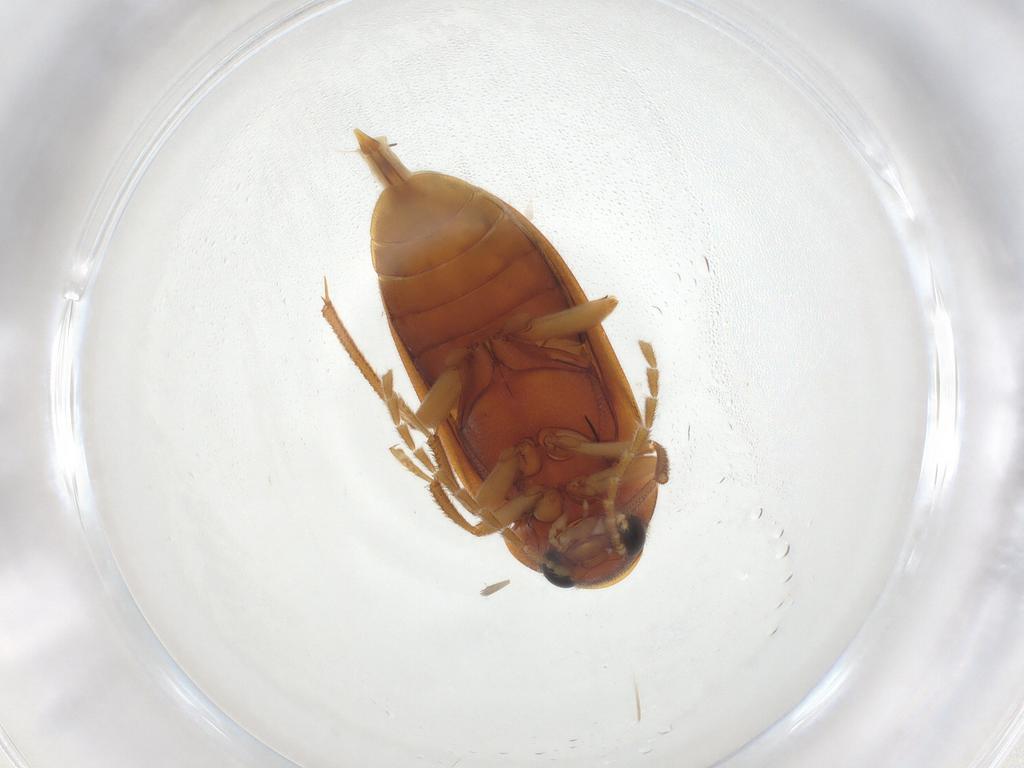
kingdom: Animalia
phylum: Arthropoda
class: Insecta
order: Coleoptera
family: Ptilodactylidae
